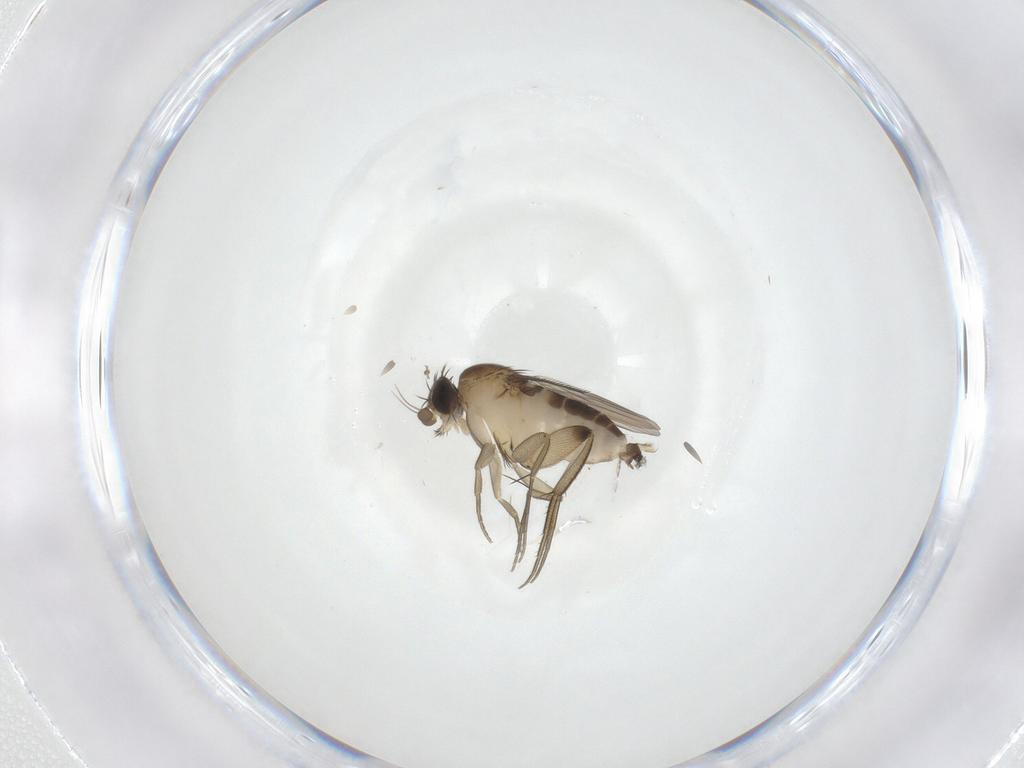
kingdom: Animalia
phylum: Arthropoda
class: Insecta
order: Diptera
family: Phoridae
